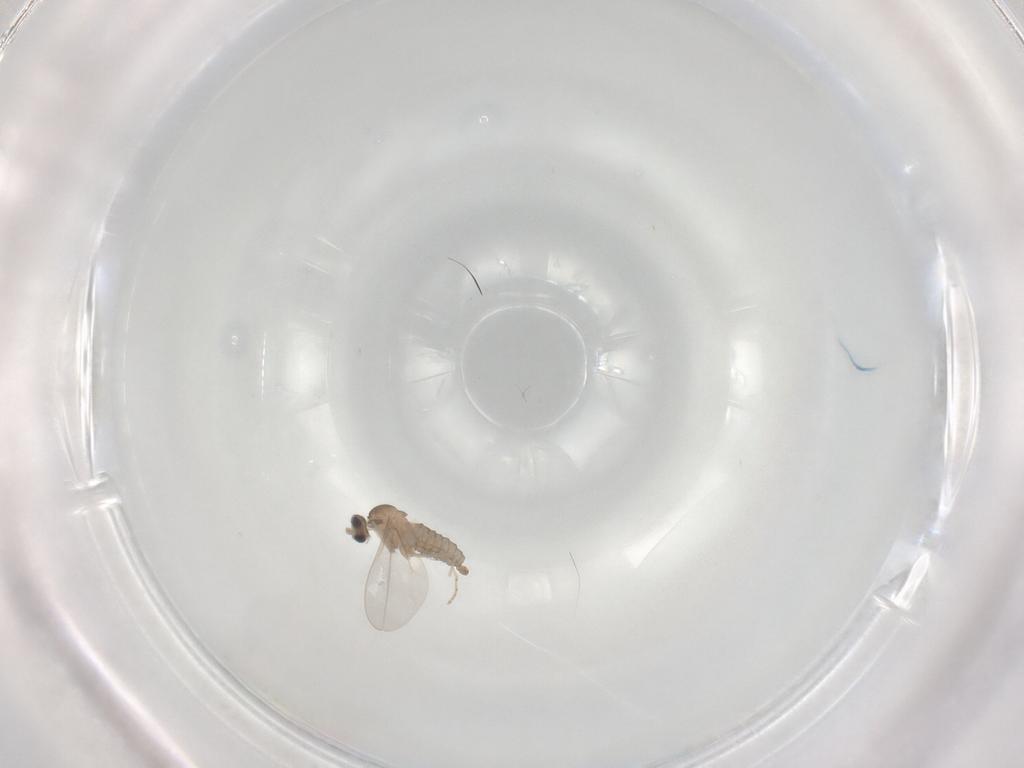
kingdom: Animalia
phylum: Arthropoda
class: Insecta
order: Diptera
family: Cecidomyiidae
